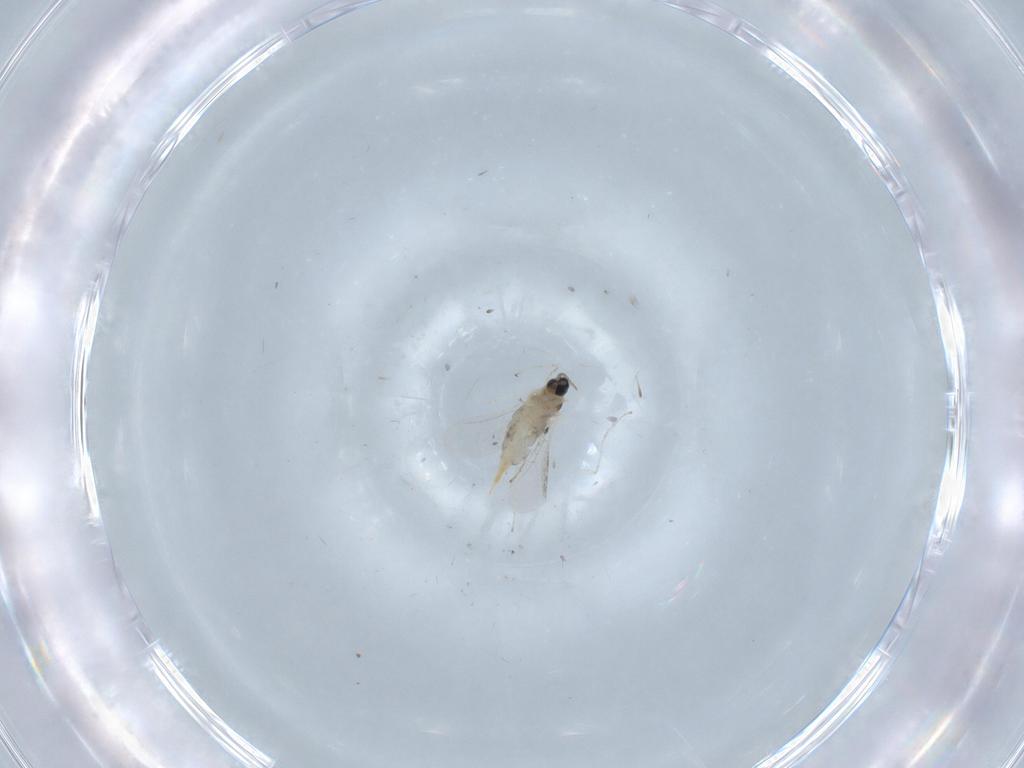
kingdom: Animalia
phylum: Arthropoda
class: Insecta
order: Diptera
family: Cecidomyiidae
